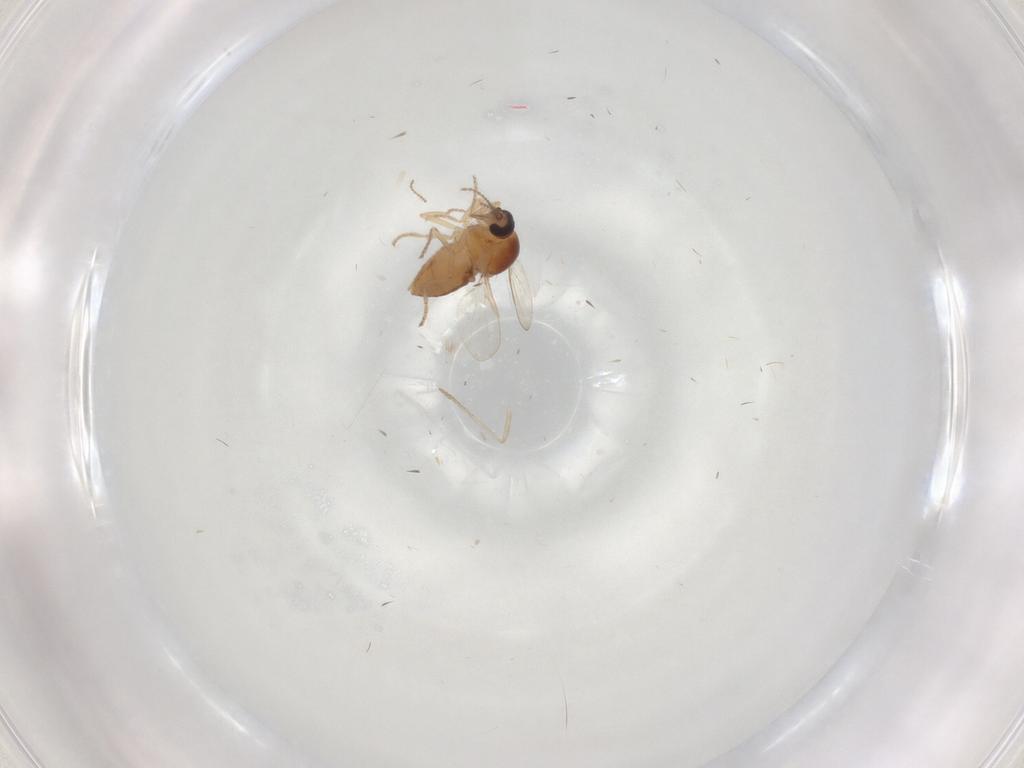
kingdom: Animalia
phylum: Arthropoda
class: Insecta
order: Diptera
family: Ceratopogonidae
